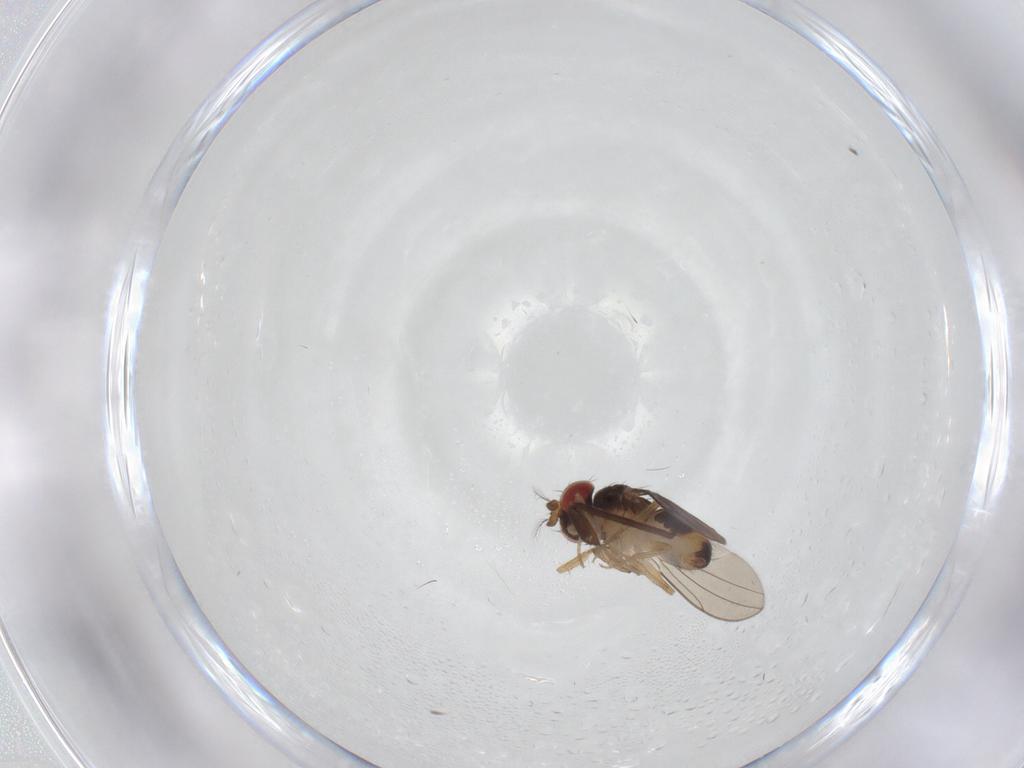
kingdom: Animalia
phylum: Arthropoda
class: Insecta
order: Diptera
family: Drosophilidae
